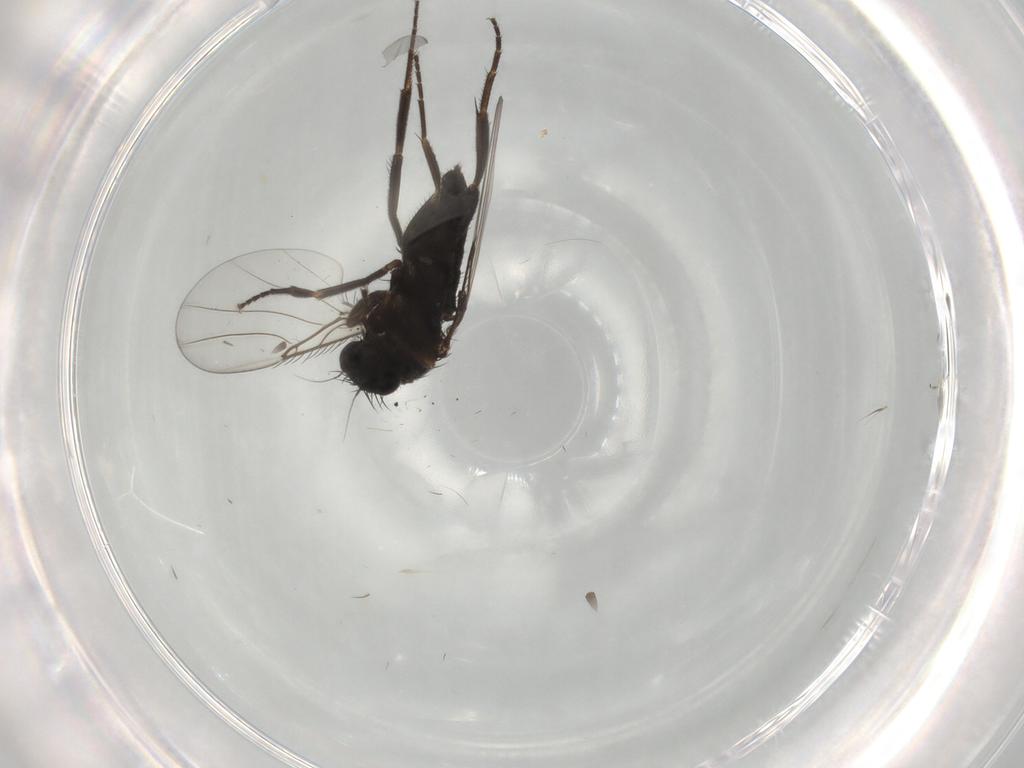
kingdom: Animalia
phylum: Arthropoda
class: Insecta
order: Diptera
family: Phoridae
